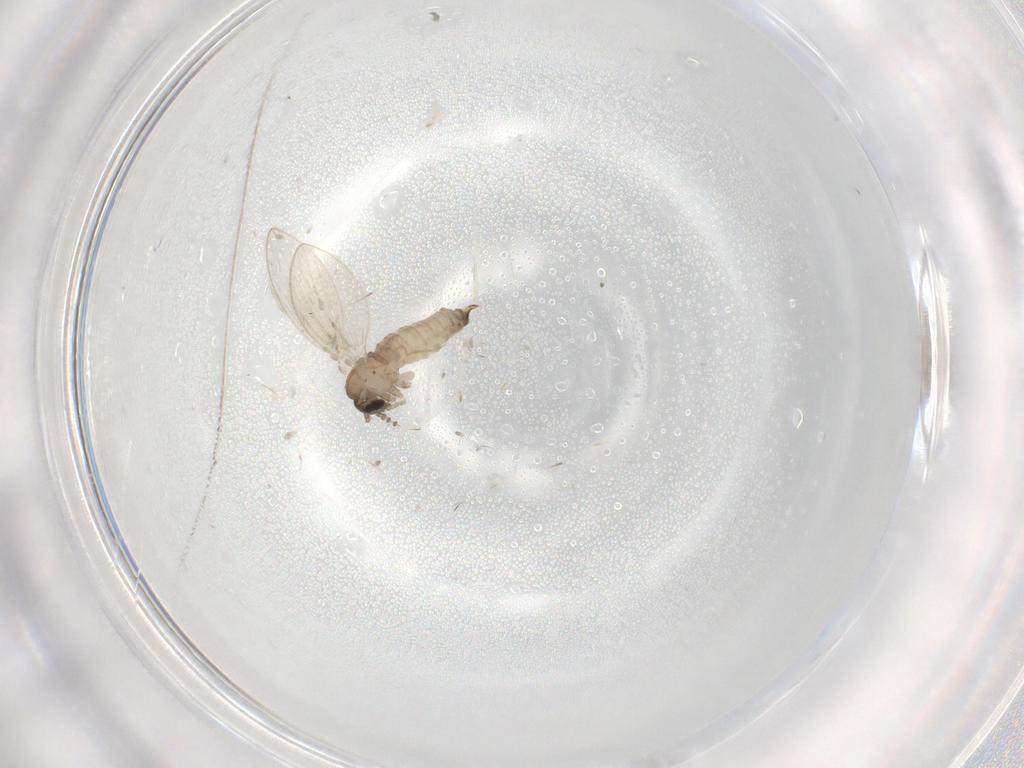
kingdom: Animalia
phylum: Arthropoda
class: Insecta
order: Diptera
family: Psychodidae
